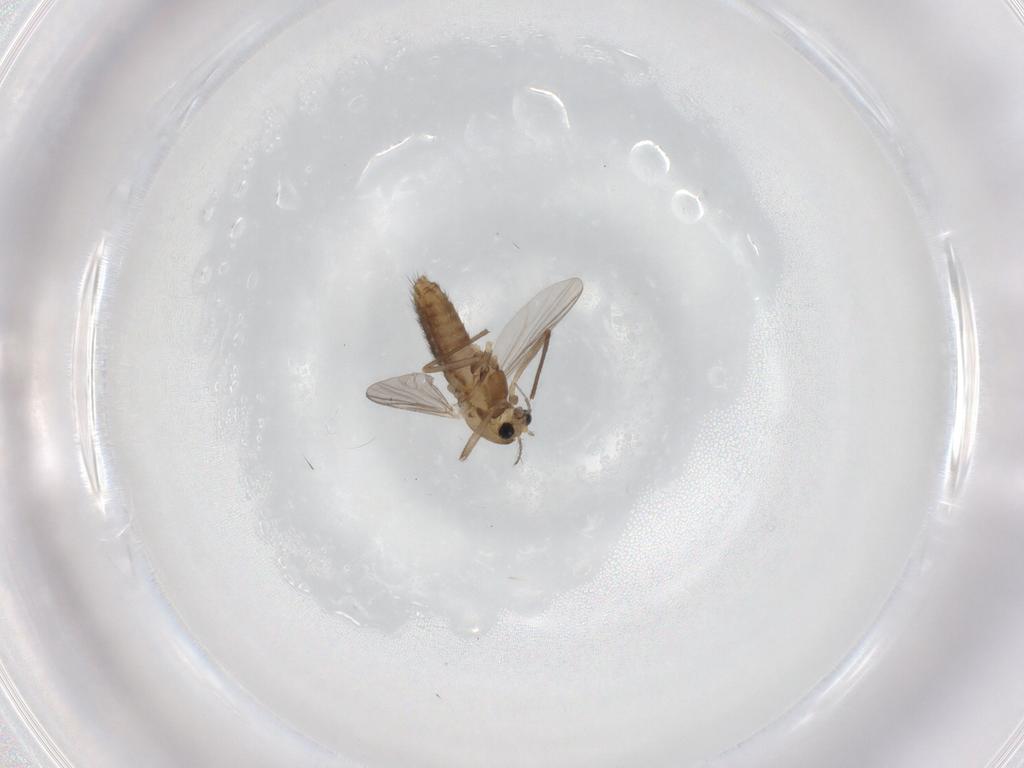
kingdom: Animalia
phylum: Arthropoda
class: Insecta
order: Diptera
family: Chironomidae
